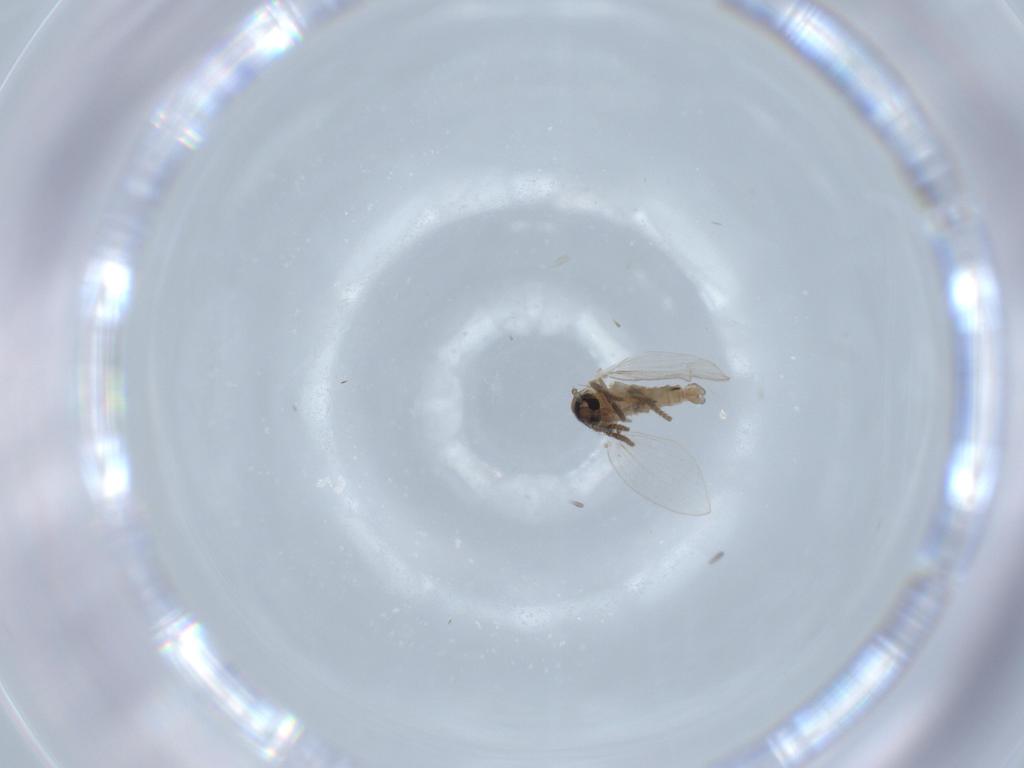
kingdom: Animalia
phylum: Arthropoda
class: Insecta
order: Diptera
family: Psychodidae
